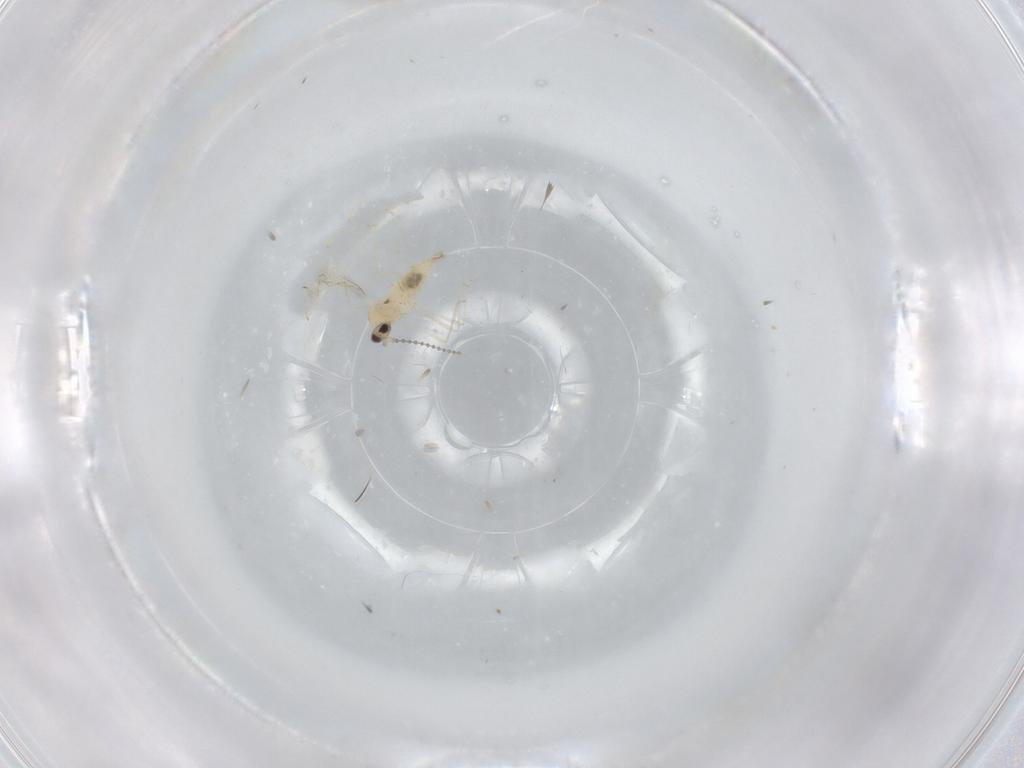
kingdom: Animalia
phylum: Arthropoda
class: Insecta
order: Diptera
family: Cecidomyiidae
